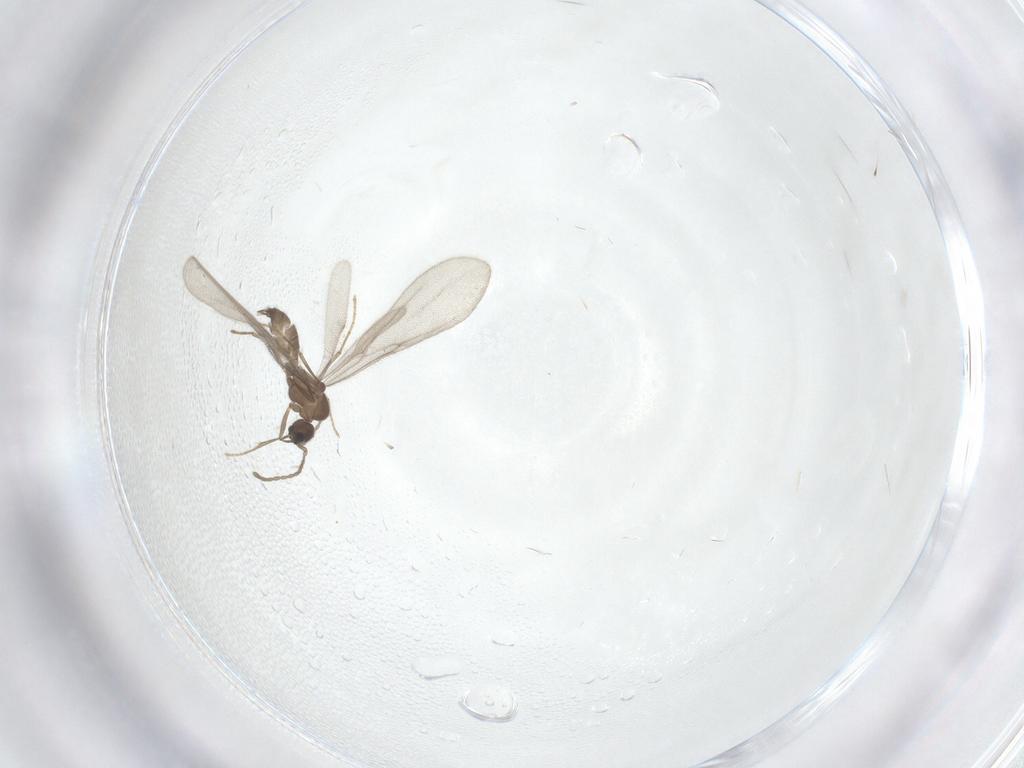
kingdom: Animalia
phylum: Arthropoda
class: Insecta
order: Hymenoptera
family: Formicidae
